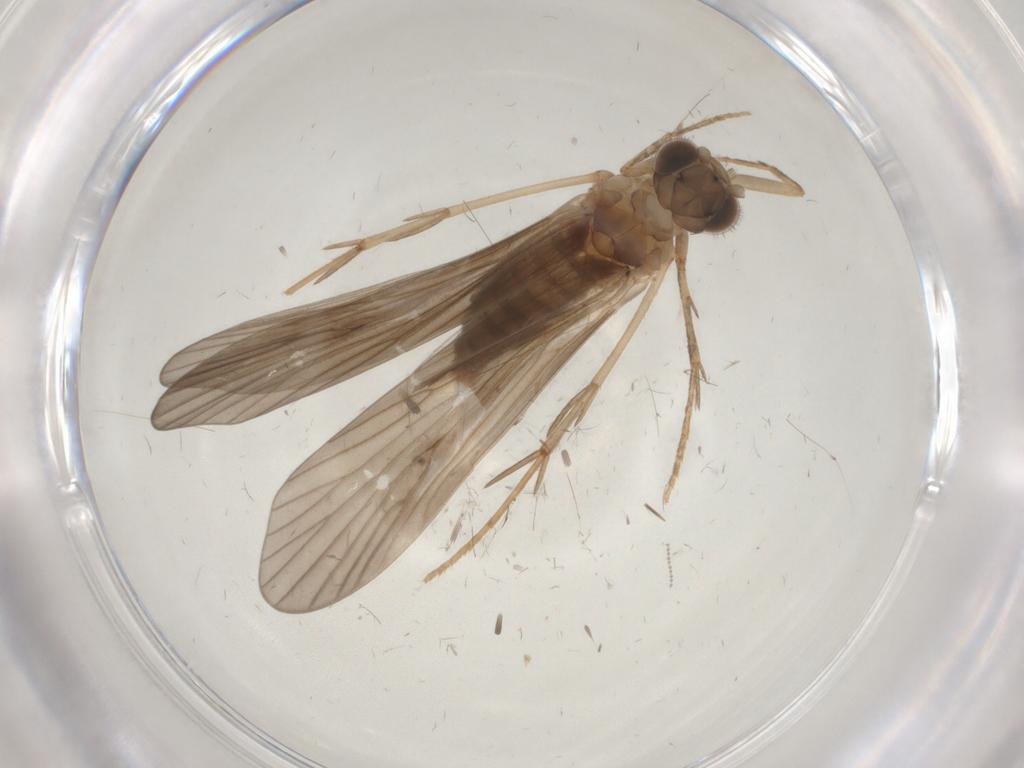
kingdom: Animalia
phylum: Arthropoda
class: Insecta
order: Trichoptera
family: Philopotamidae
